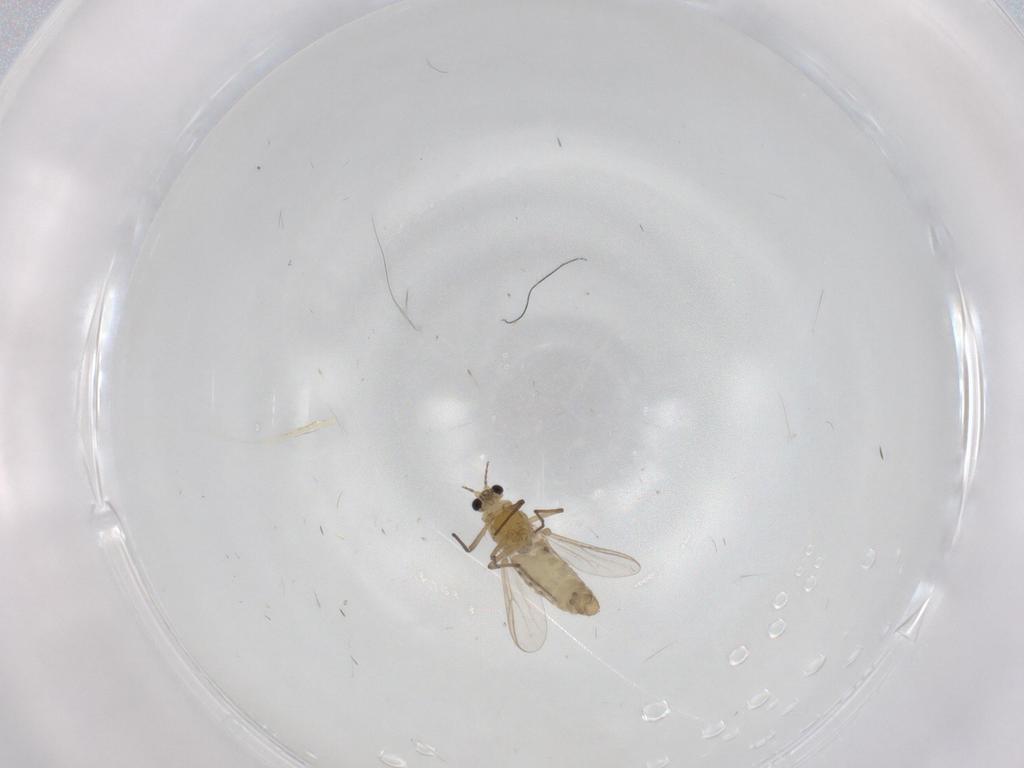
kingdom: Animalia
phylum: Arthropoda
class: Insecta
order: Diptera
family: Chironomidae
